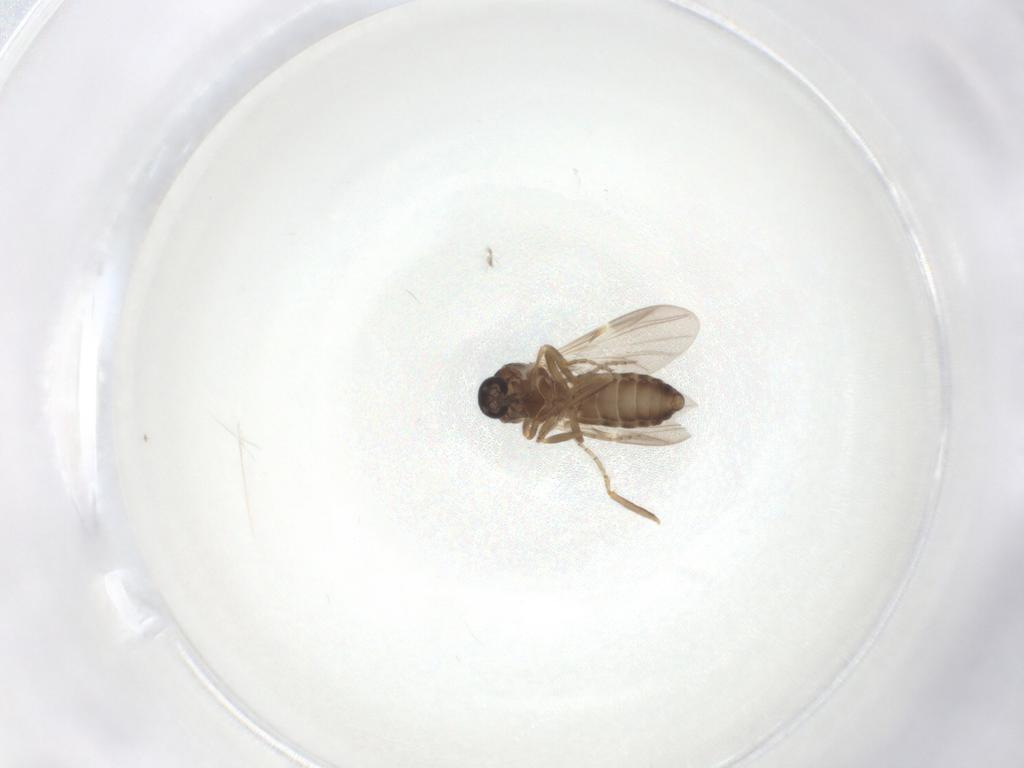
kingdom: Animalia
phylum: Arthropoda
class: Insecta
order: Diptera
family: Ceratopogonidae
